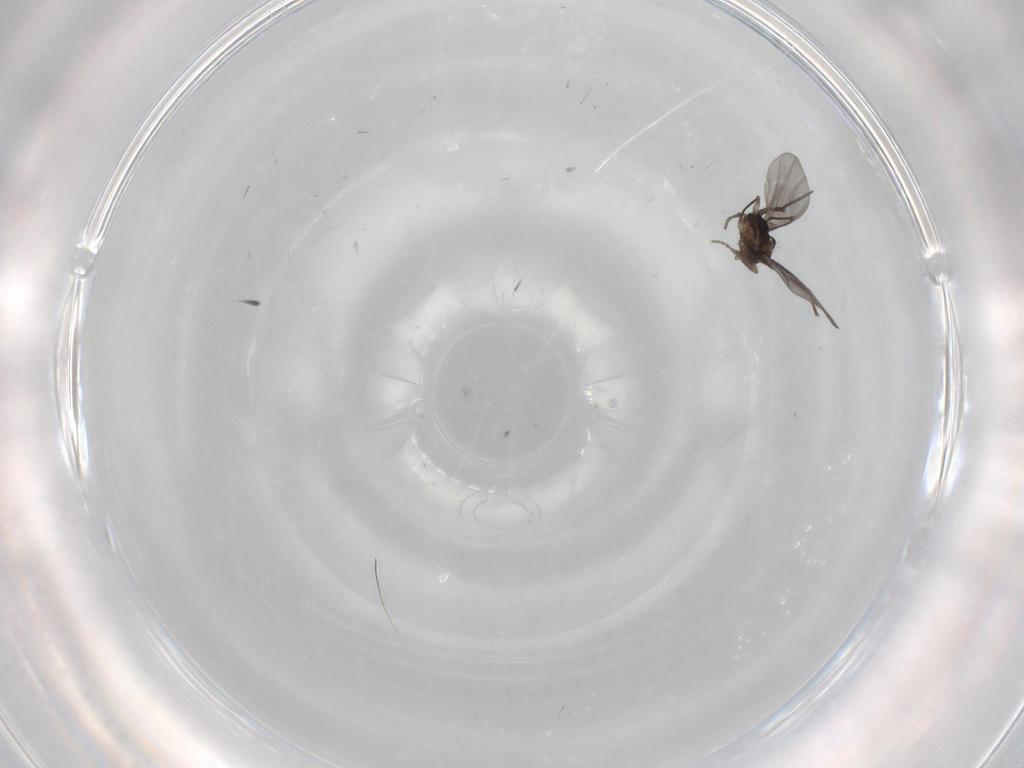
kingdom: Animalia
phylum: Arthropoda
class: Insecta
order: Diptera
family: Phoridae
